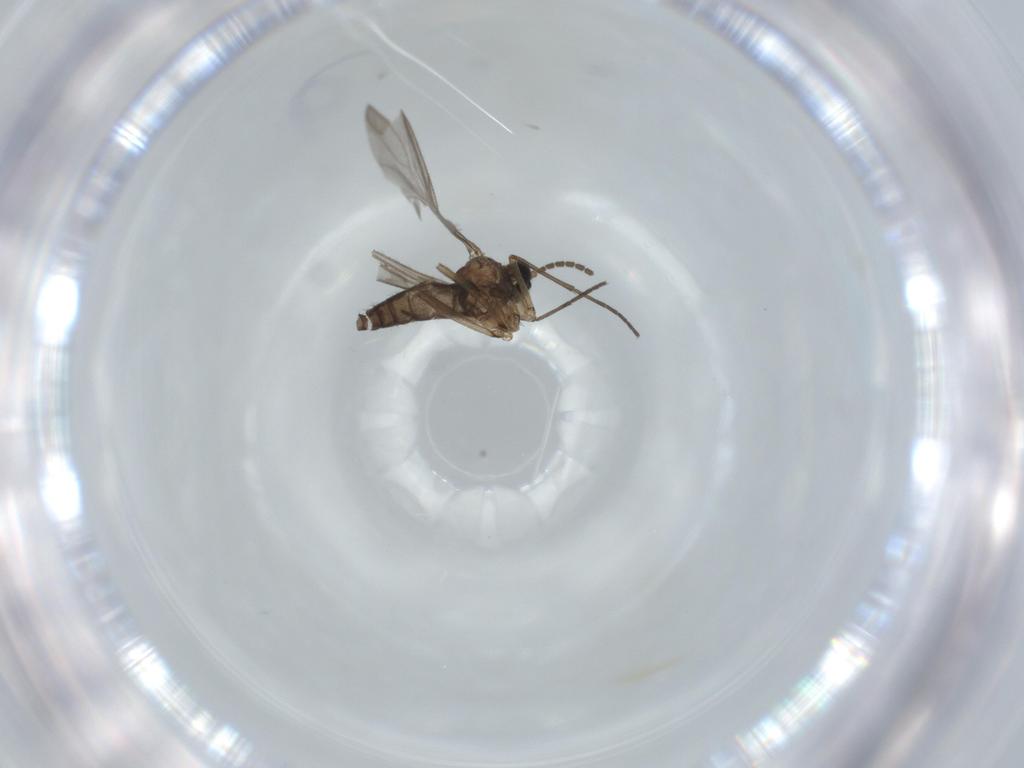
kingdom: Animalia
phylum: Arthropoda
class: Insecta
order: Diptera
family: Sciaridae
